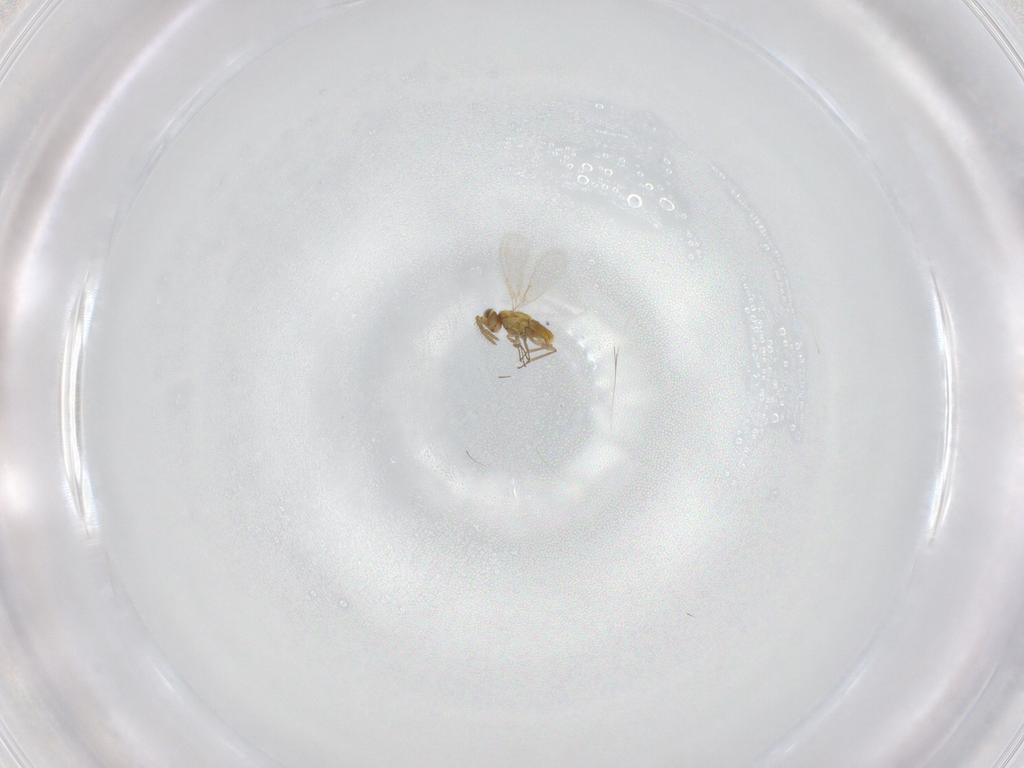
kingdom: Animalia
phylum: Arthropoda
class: Insecta
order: Hymenoptera
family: Aphelinidae
